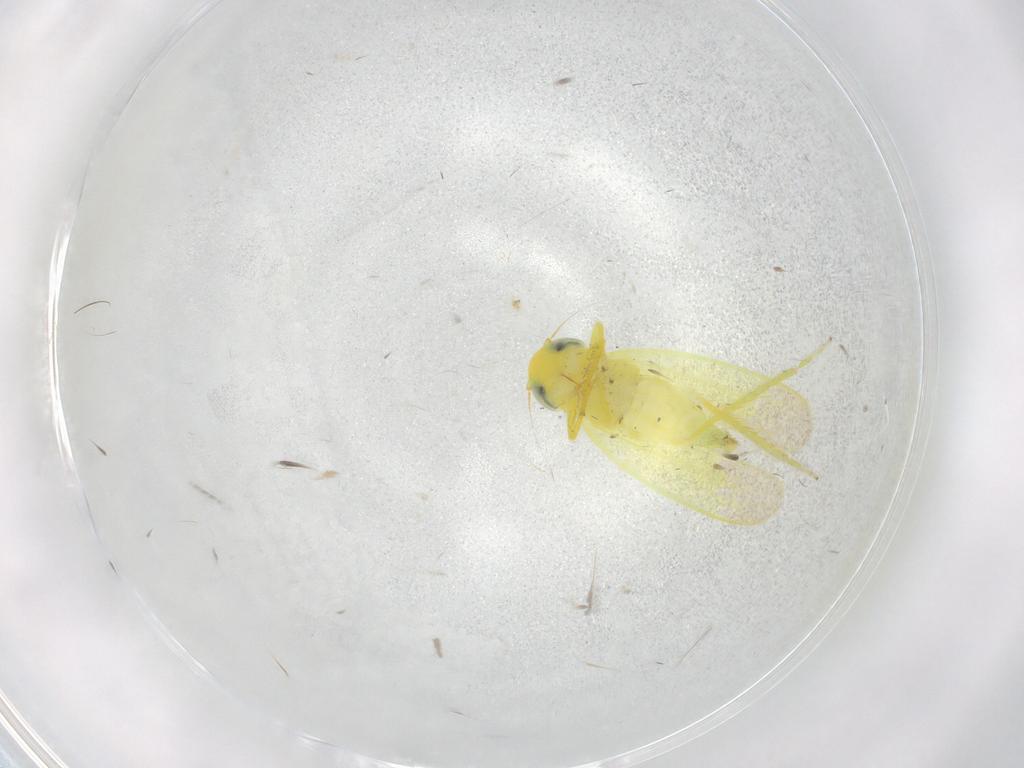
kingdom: Animalia
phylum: Arthropoda
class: Insecta
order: Hemiptera
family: Cicadellidae
